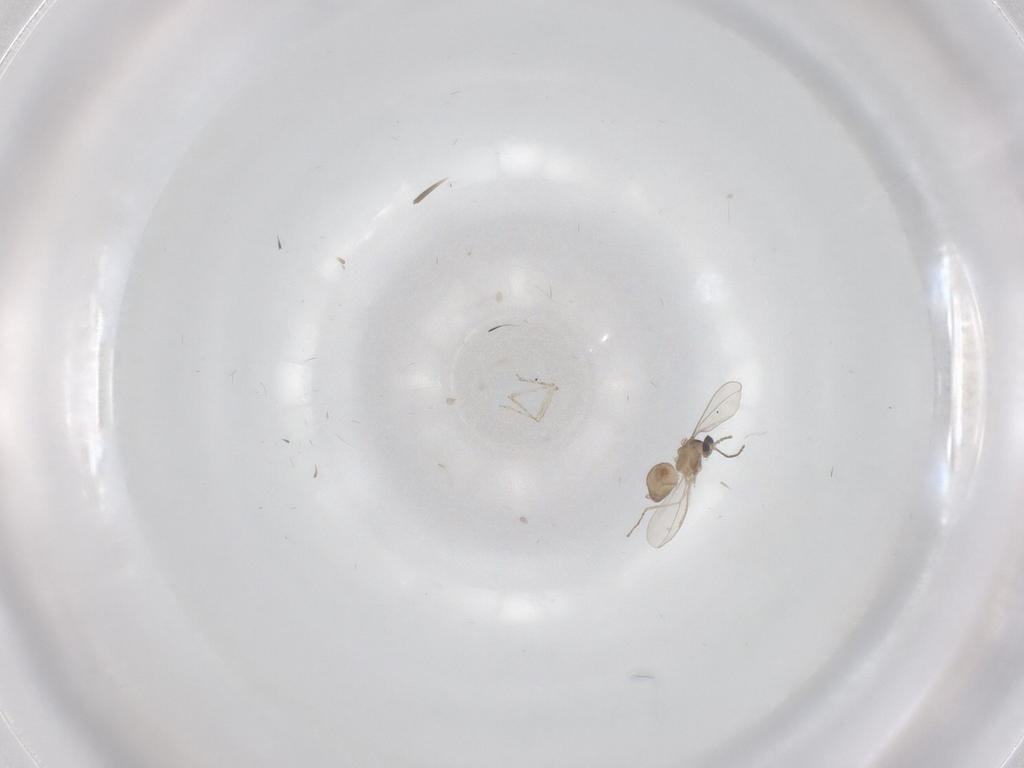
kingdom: Animalia
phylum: Arthropoda
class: Insecta
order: Diptera
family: Cecidomyiidae
